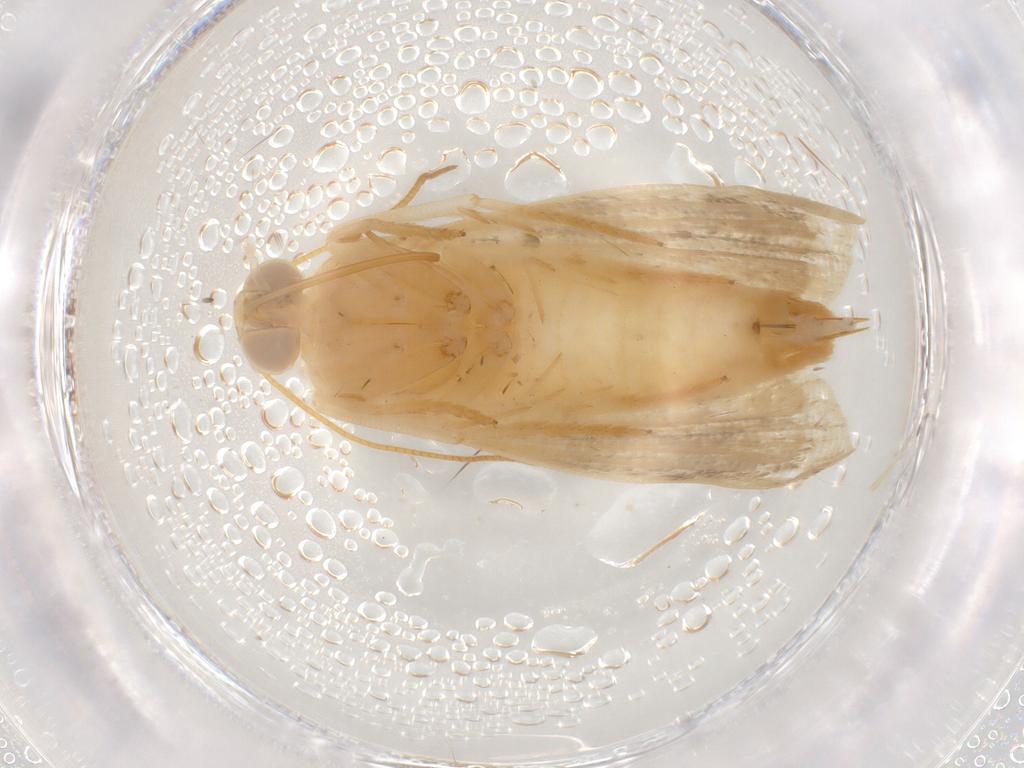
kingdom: Animalia
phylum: Arthropoda
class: Insecta
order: Lepidoptera
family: Noctuidae
